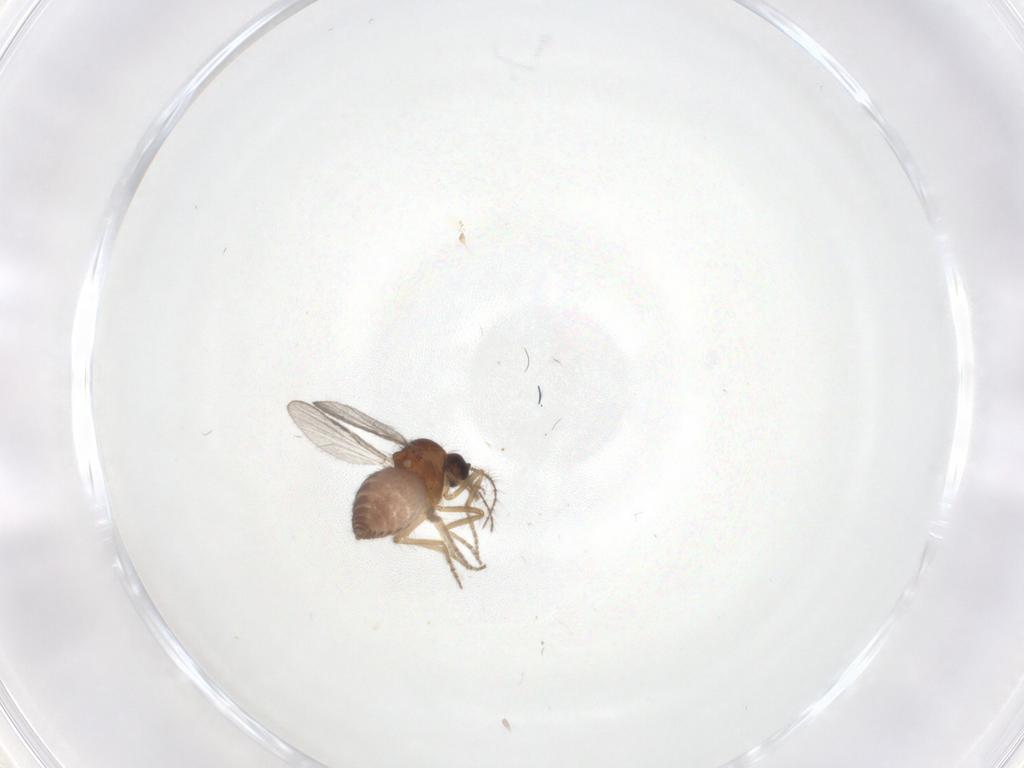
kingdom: Animalia
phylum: Arthropoda
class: Insecta
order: Diptera
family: Ceratopogonidae
